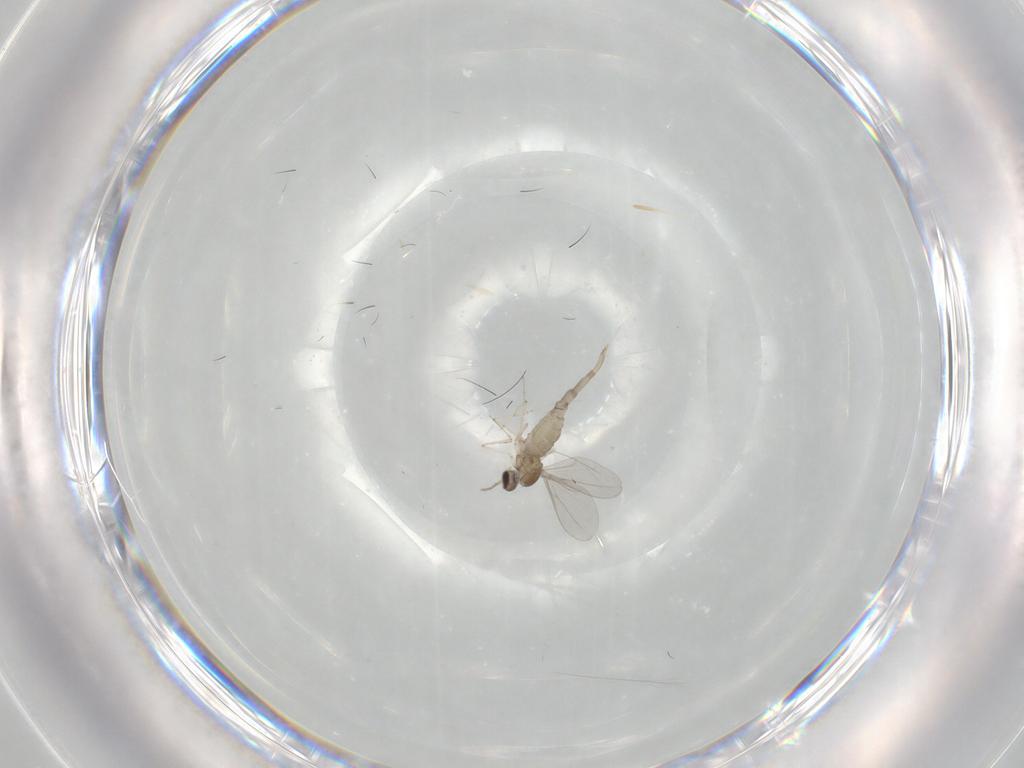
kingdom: Animalia
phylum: Arthropoda
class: Insecta
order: Diptera
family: Cecidomyiidae
